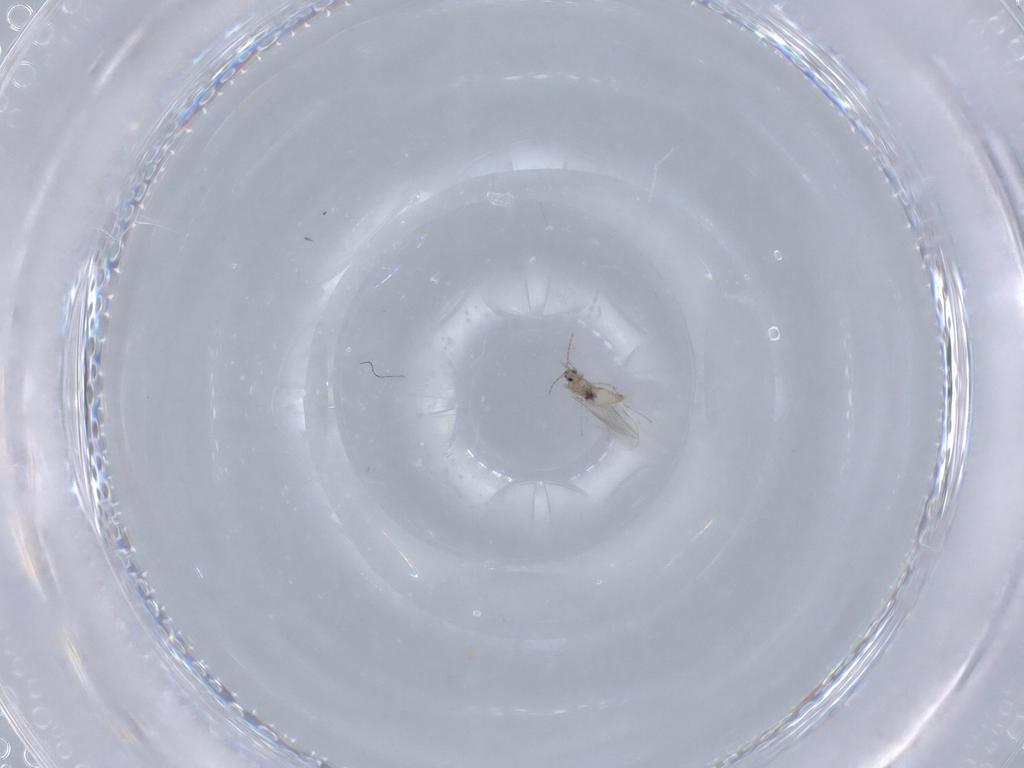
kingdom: Animalia
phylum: Arthropoda
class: Insecta
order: Diptera
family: Cecidomyiidae
